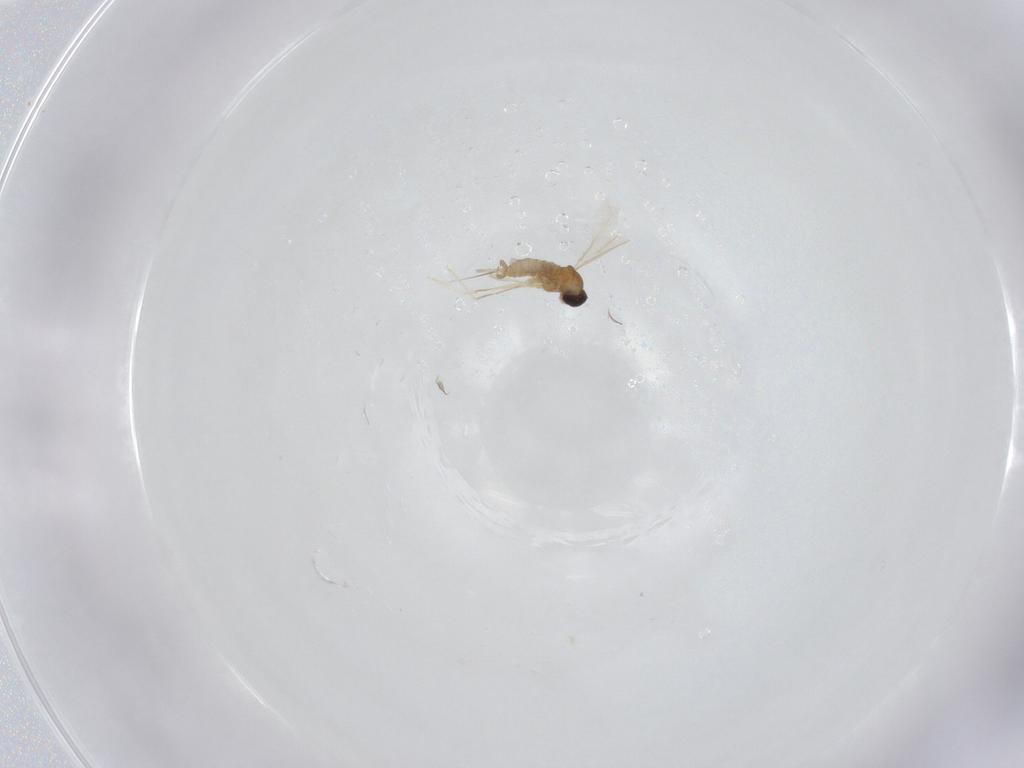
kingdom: Animalia
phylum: Arthropoda
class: Insecta
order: Diptera
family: Cecidomyiidae
